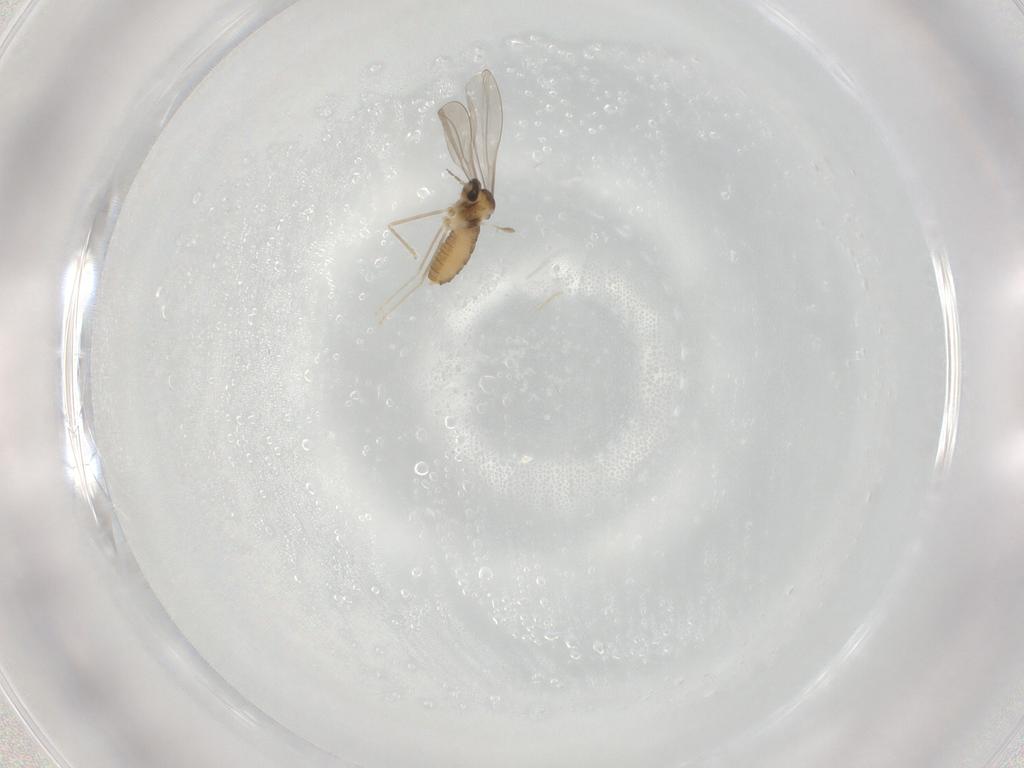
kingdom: Animalia
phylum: Arthropoda
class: Insecta
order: Diptera
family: Cecidomyiidae
